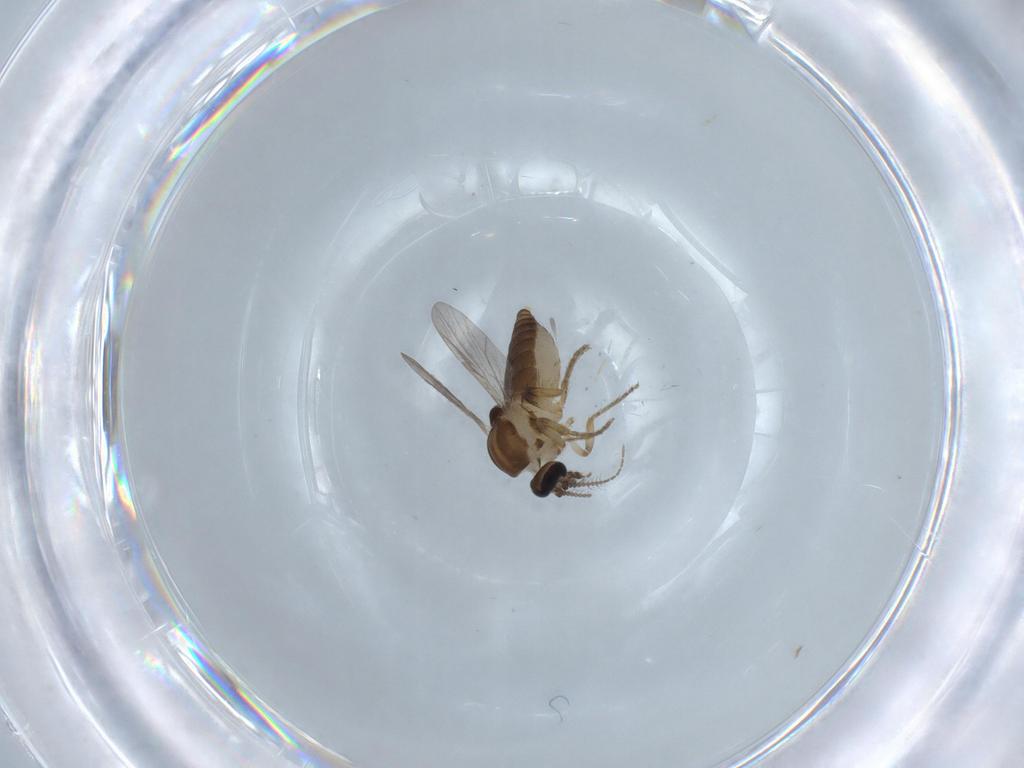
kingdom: Animalia
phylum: Arthropoda
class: Insecta
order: Diptera
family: Ceratopogonidae
